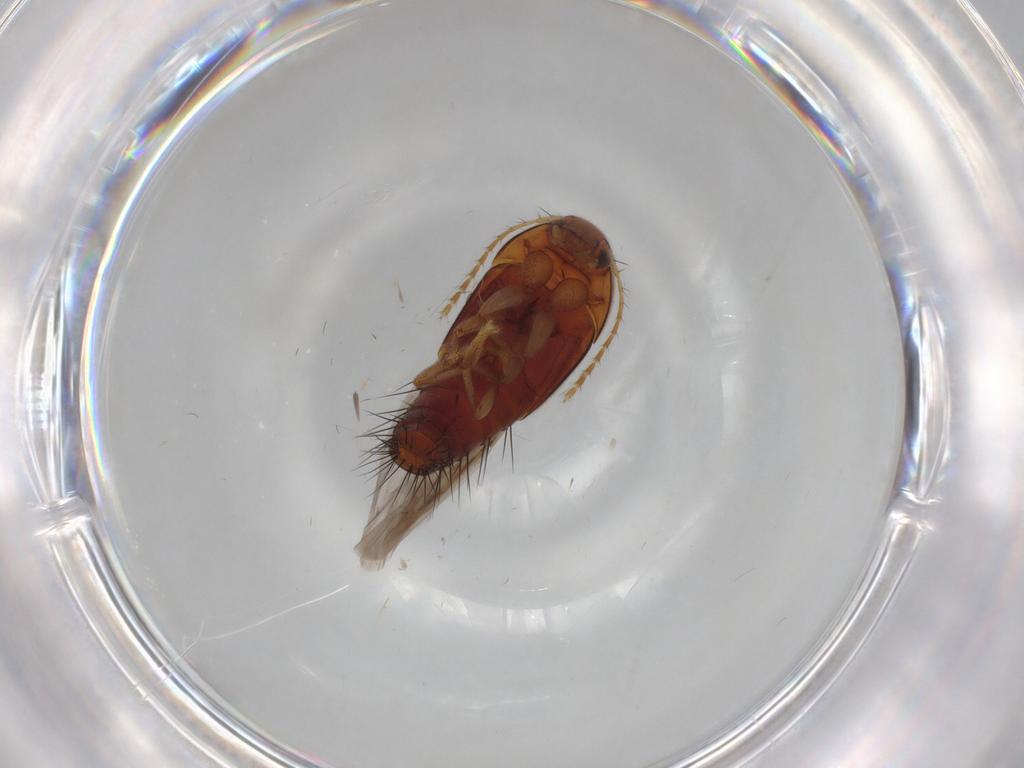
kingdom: Animalia
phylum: Arthropoda
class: Insecta
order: Coleoptera
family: Staphylinidae
